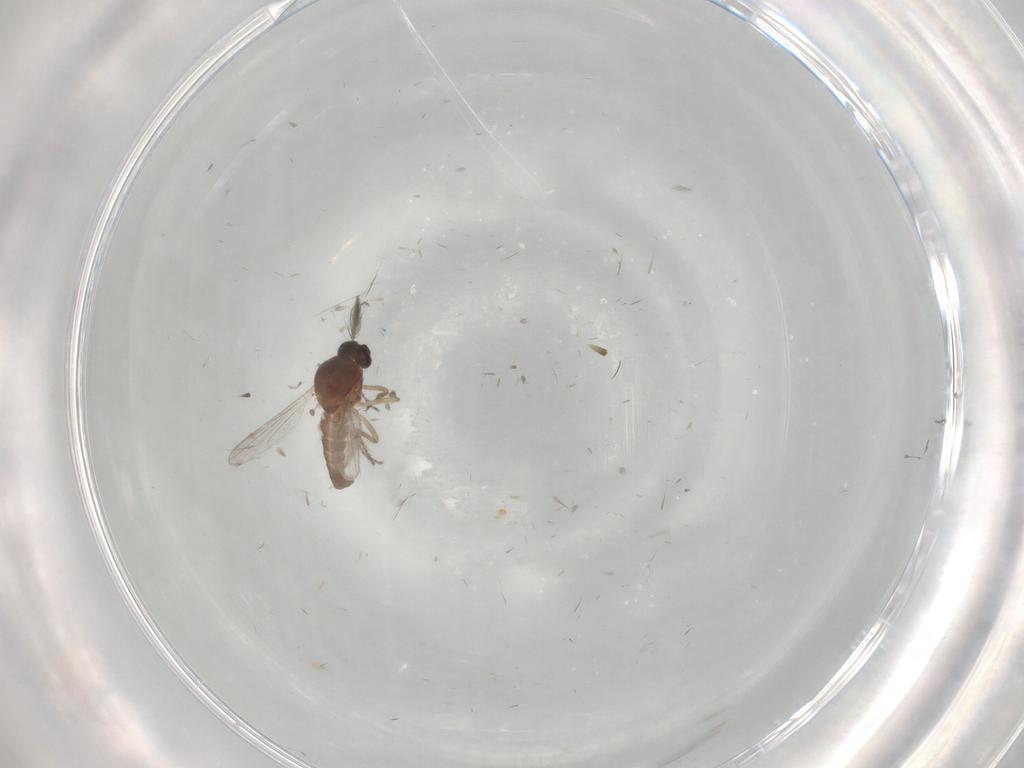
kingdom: Animalia
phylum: Arthropoda
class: Insecta
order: Diptera
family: Ceratopogonidae
